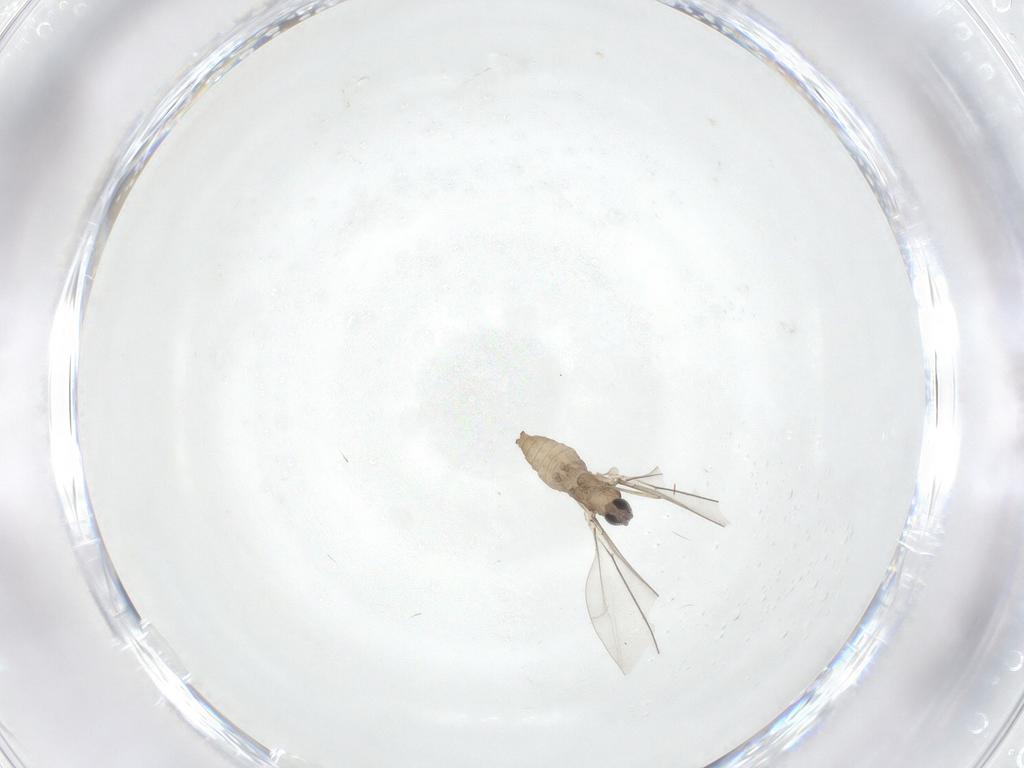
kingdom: Animalia
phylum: Arthropoda
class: Insecta
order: Diptera
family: Cecidomyiidae
